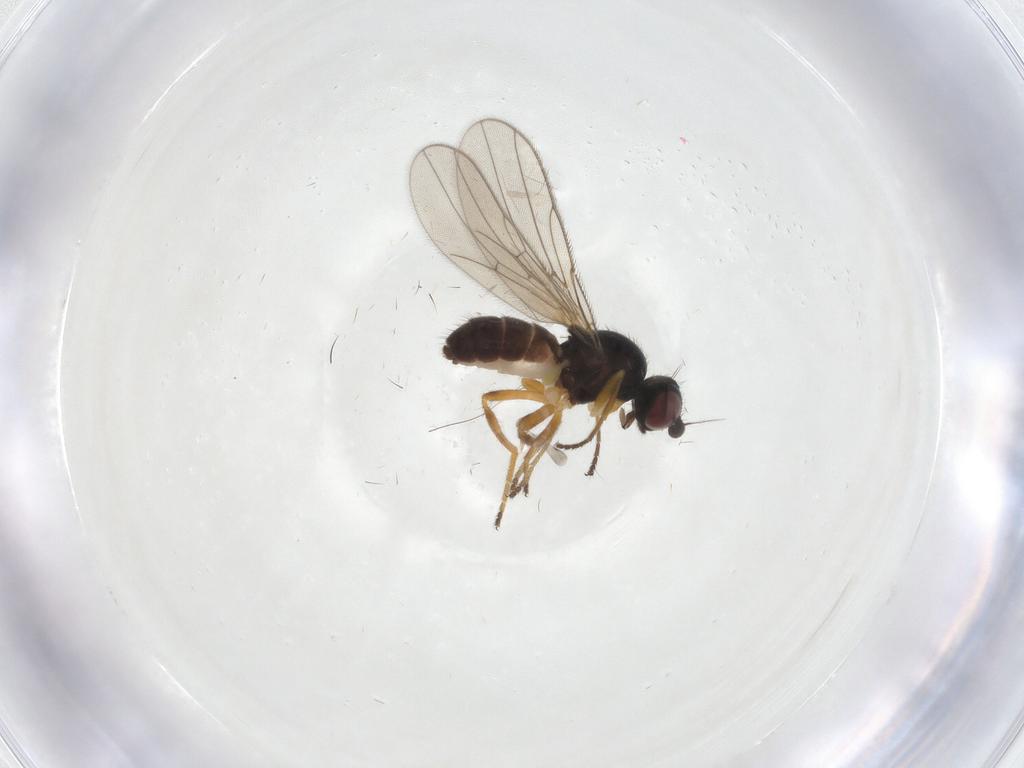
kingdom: Animalia
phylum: Arthropoda
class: Insecta
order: Diptera
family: Chloropidae
